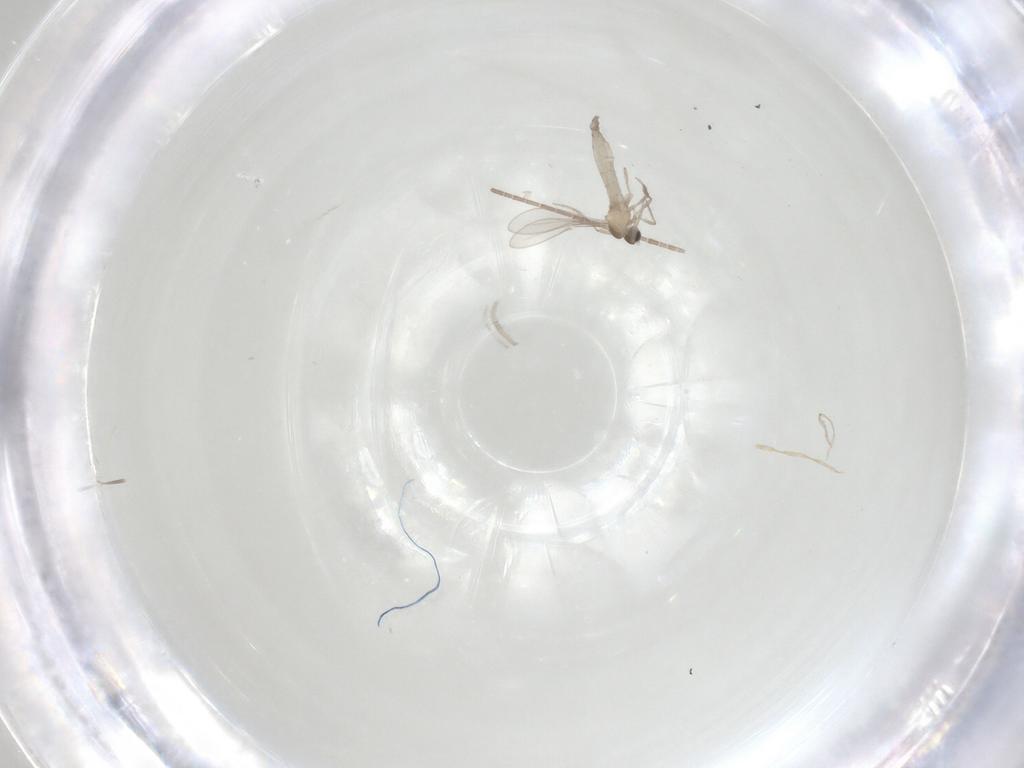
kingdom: Animalia
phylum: Arthropoda
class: Insecta
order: Diptera
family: Cecidomyiidae
